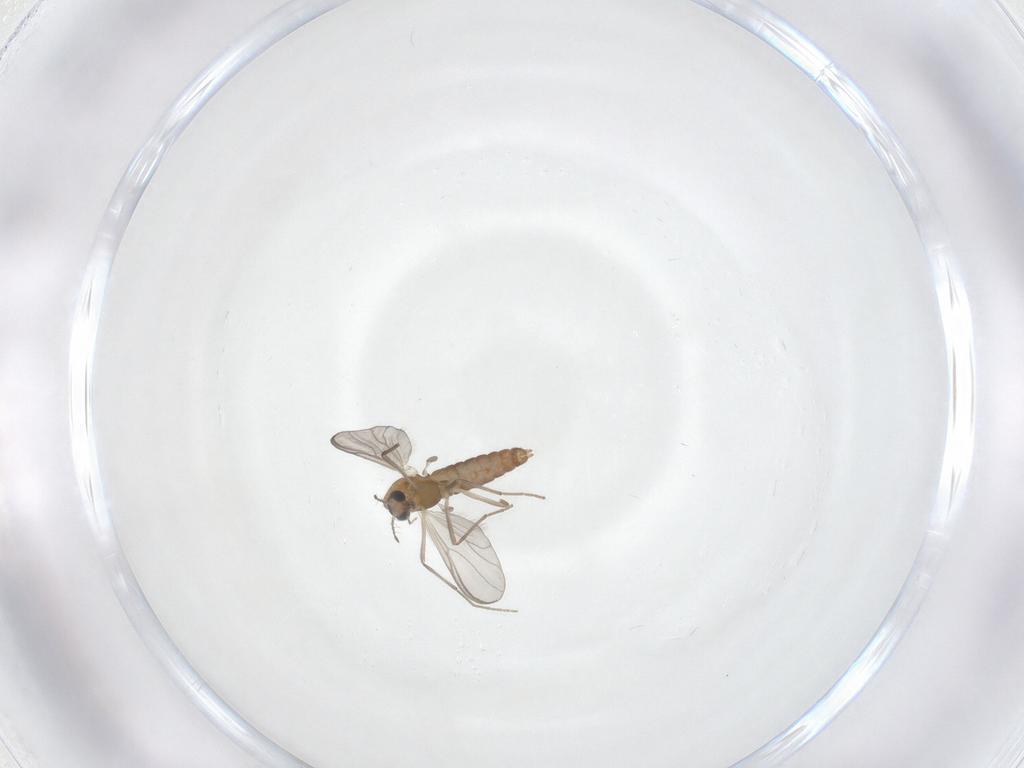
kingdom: Animalia
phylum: Arthropoda
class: Insecta
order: Diptera
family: Chironomidae
